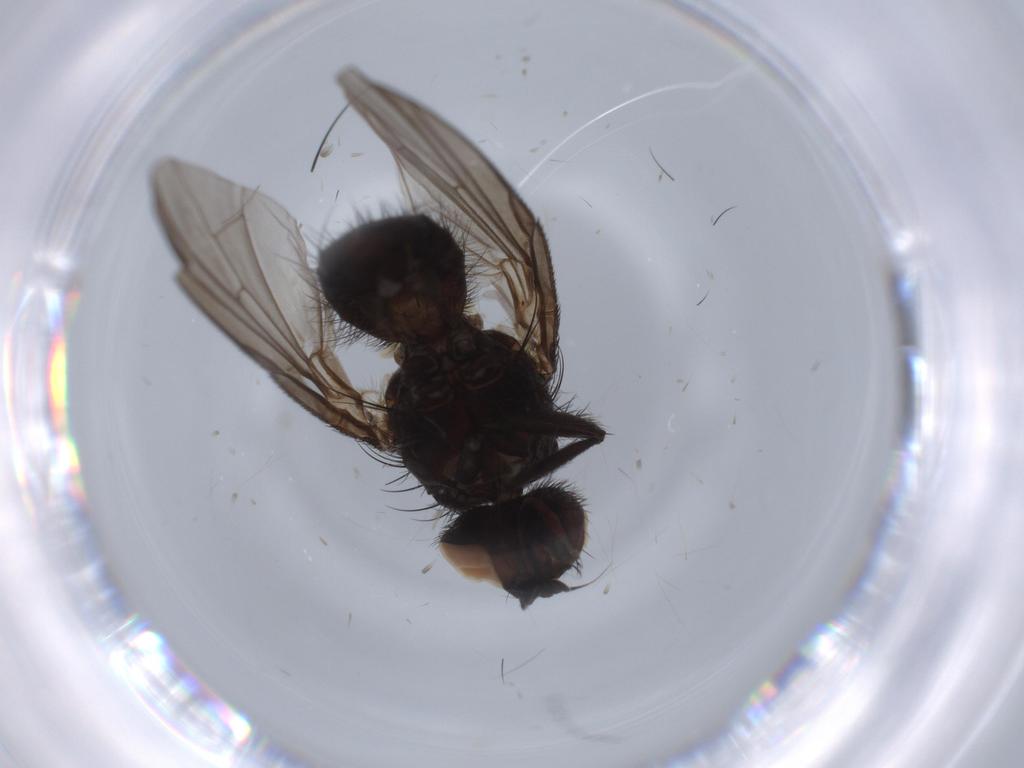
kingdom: Animalia
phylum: Arthropoda
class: Insecta
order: Diptera
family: Anthomyiidae
